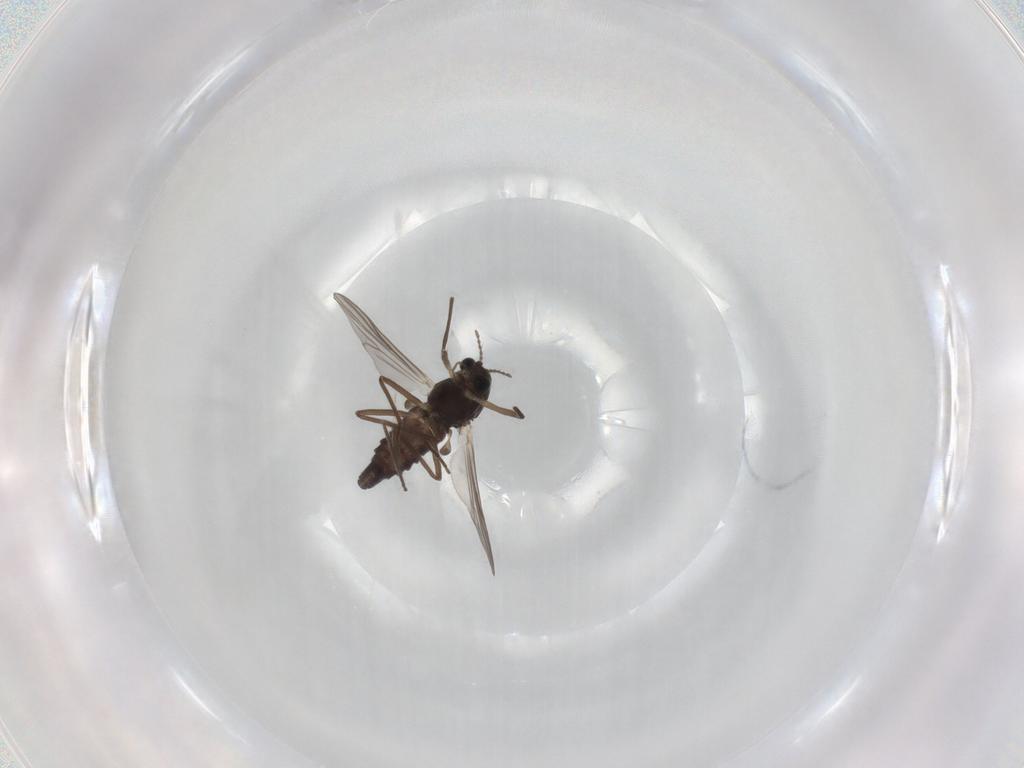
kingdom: Animalia
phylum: Arthropoda
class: Insecta
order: Diptera
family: Chironomidae
